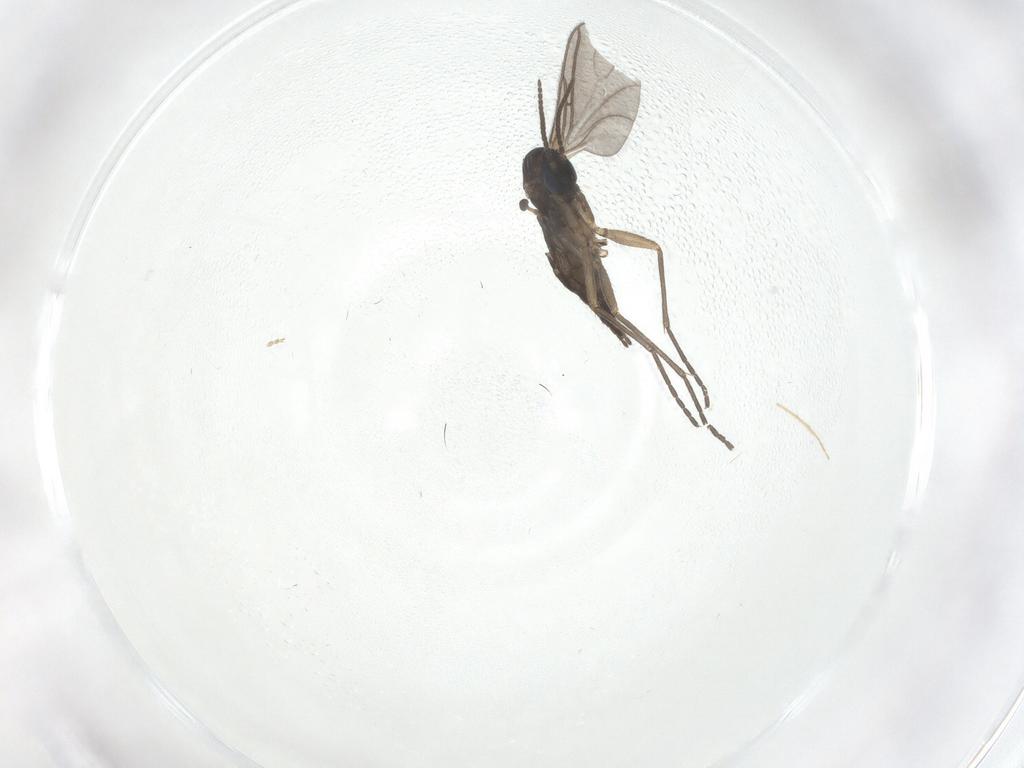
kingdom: Animalia
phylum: Arthropoda
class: Insecta
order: Diptera
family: Sciaridae
